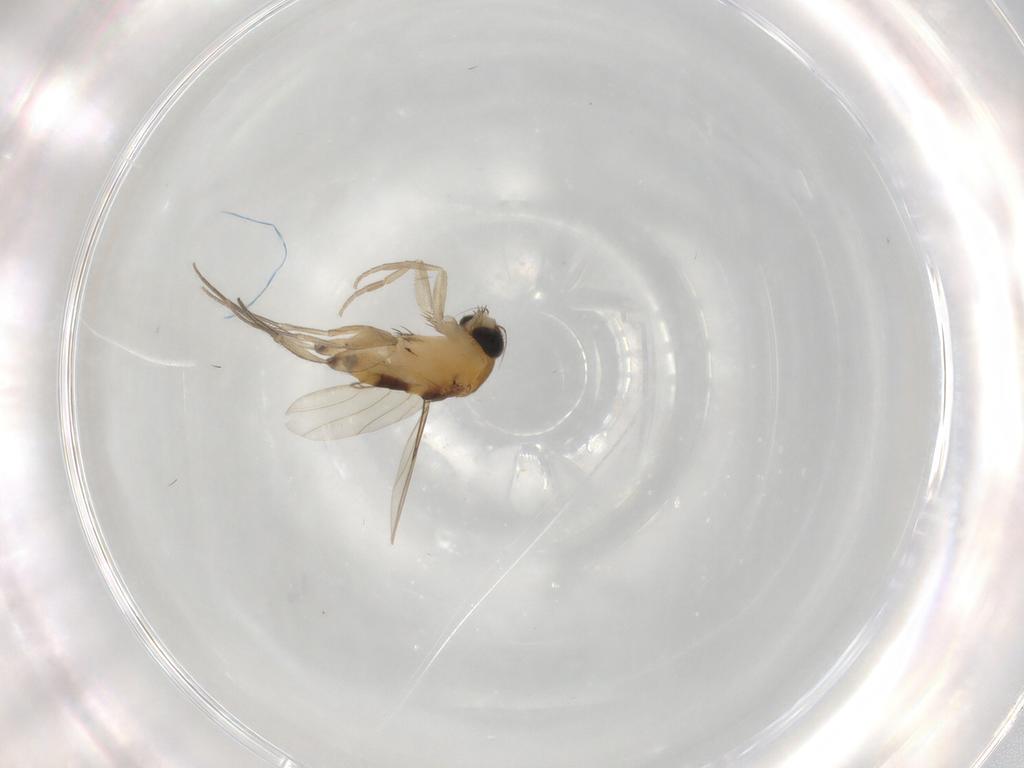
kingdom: Animalia
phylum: Arthropoda
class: Insecta
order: Diptera
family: Phoridae
